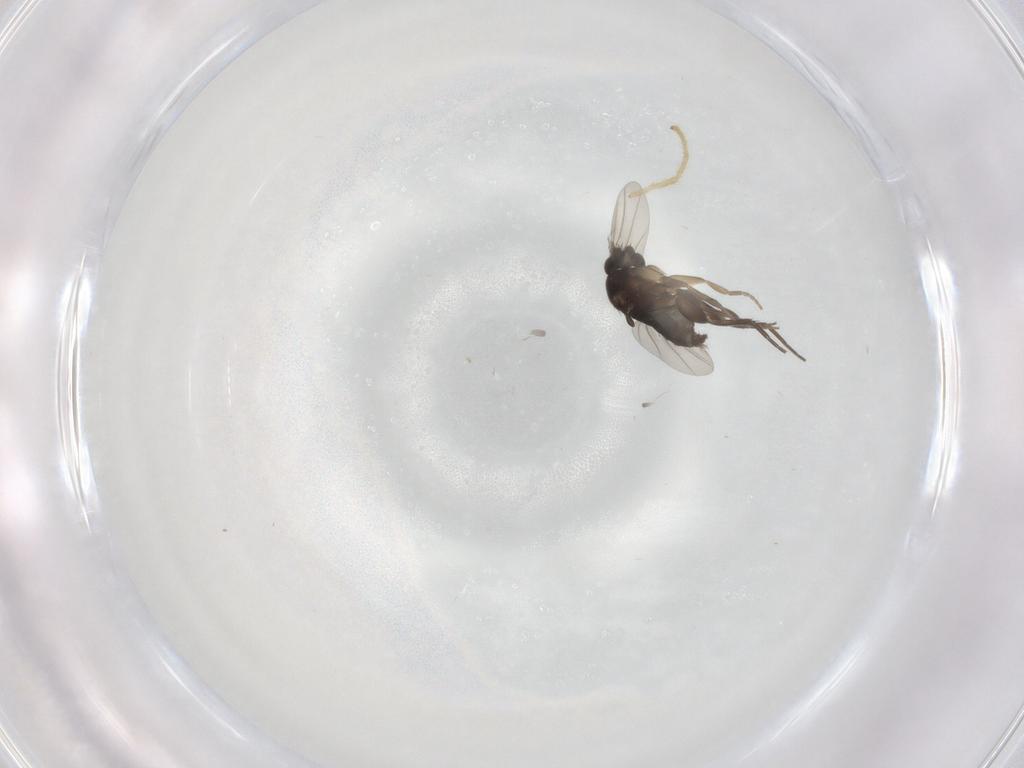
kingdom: Animalia
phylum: Arthropoda
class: Insecta
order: Diptera
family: Phoridae
